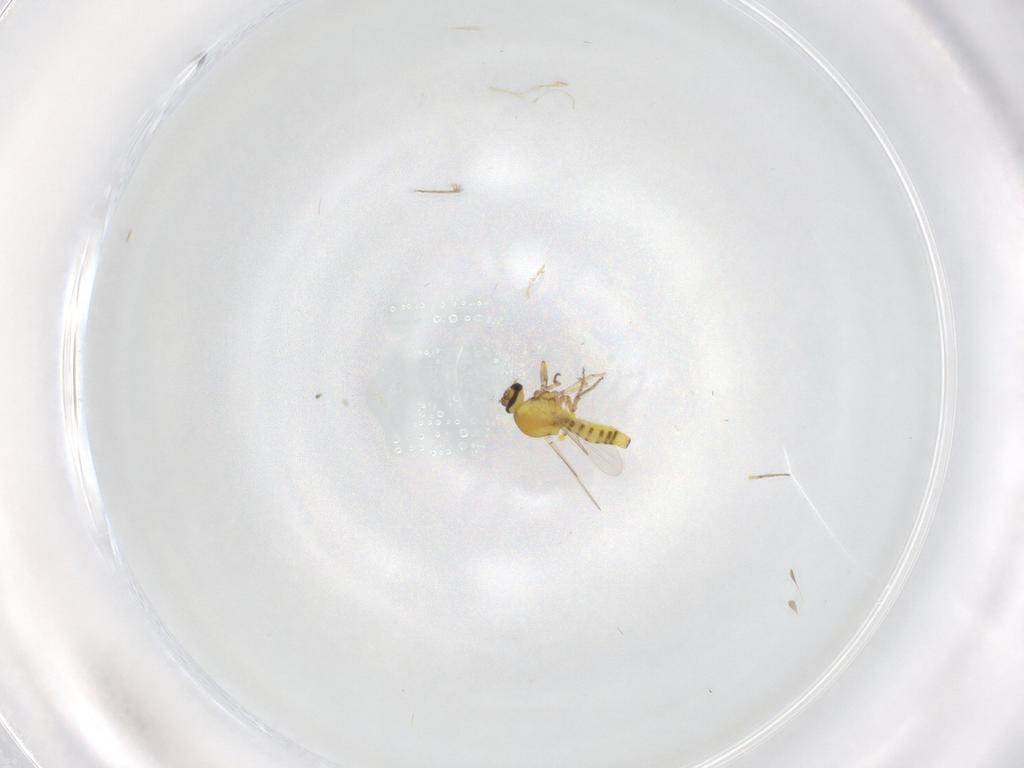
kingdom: Animalia
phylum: Arthropoda
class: Insecta
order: Diptera
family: Ceratopogonidae
